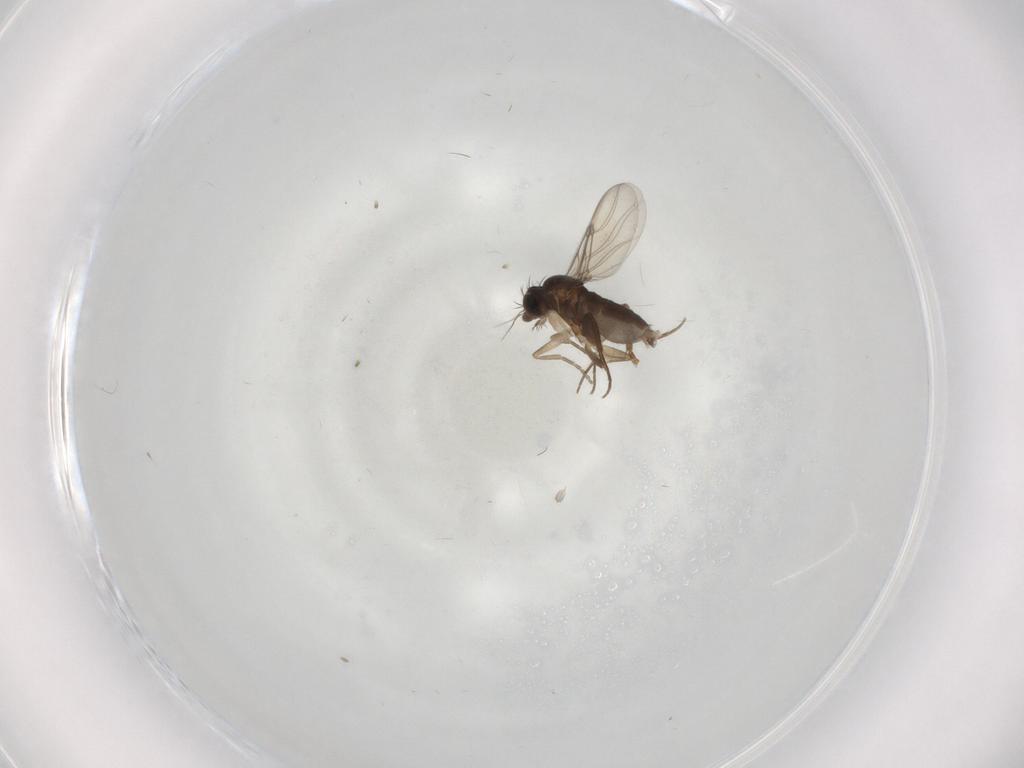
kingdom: Animalia
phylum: Arthropoda
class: Insecta
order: Diptera
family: Phoridae
